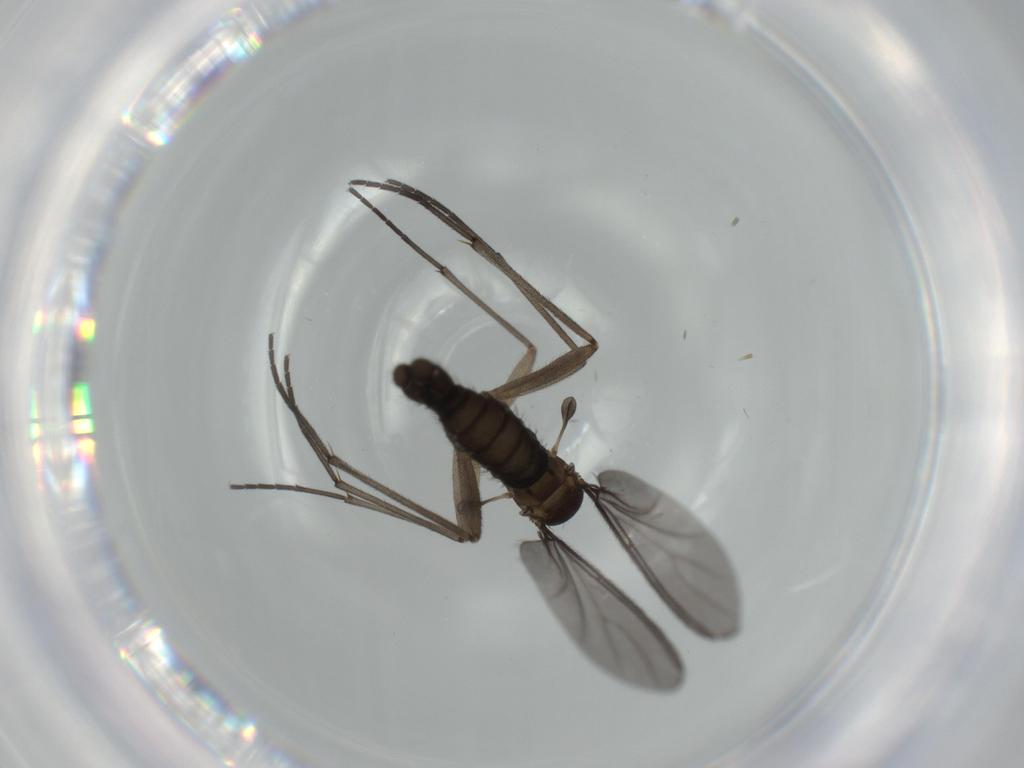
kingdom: Animalia
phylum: Arthropoda
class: Insecta
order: Diptera
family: Sciaridae
